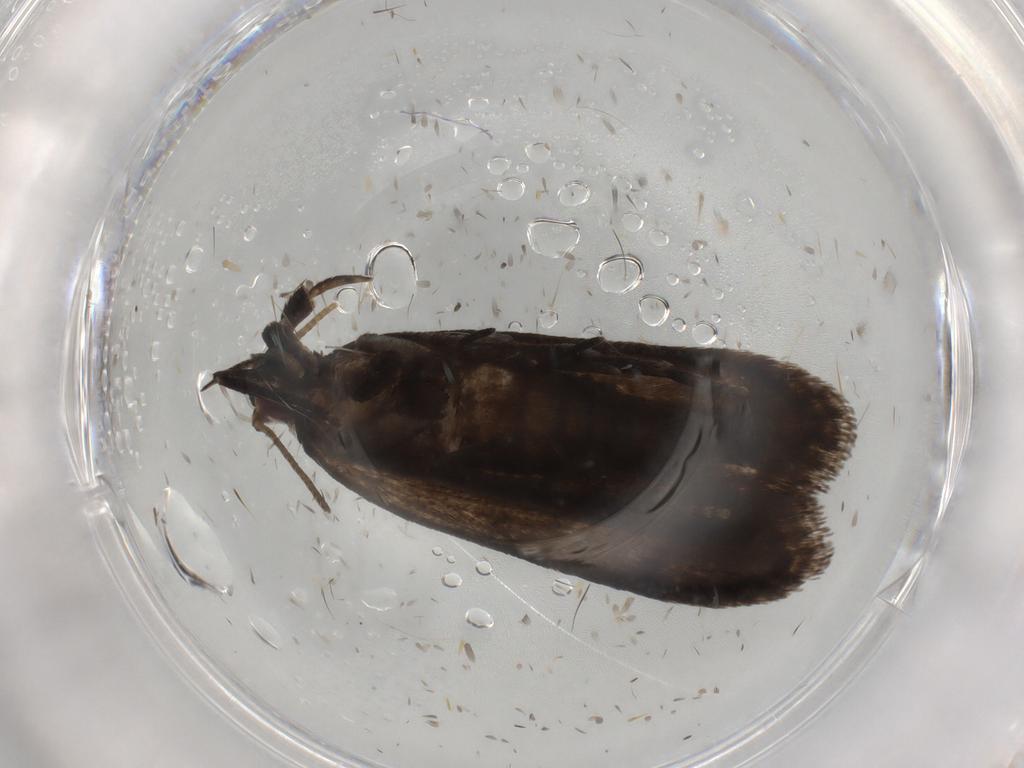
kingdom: Animalia
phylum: Arthropoda
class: Insecta
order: Lepidoptera
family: Gelechiidae
